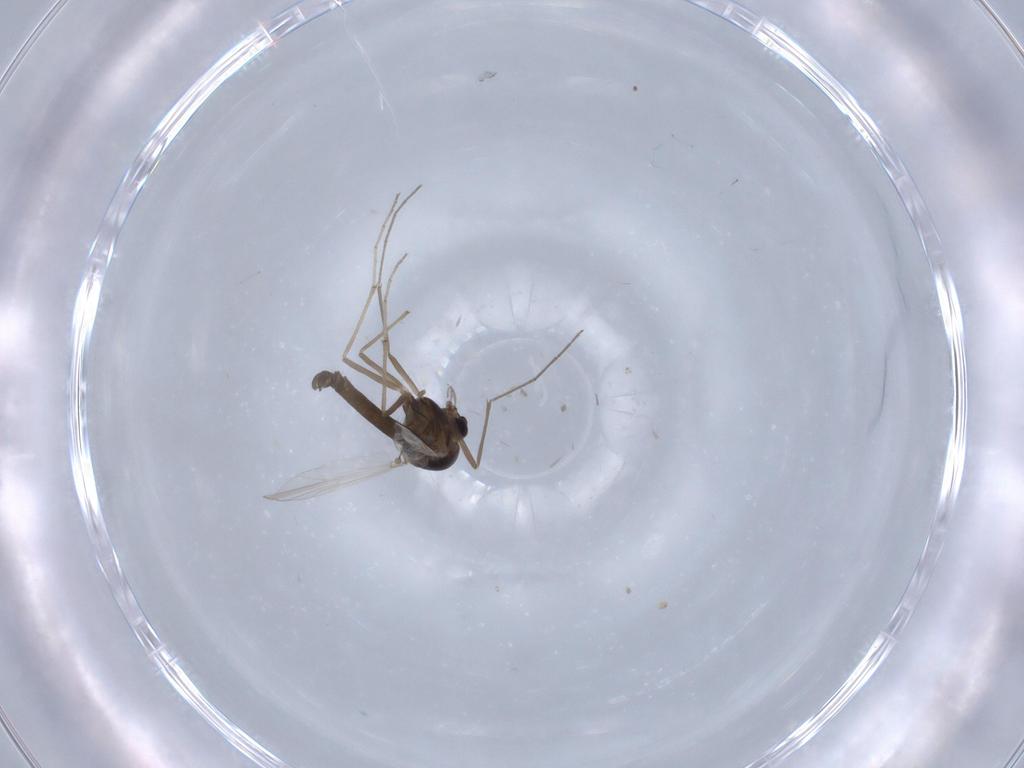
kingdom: Animalia
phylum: Arthropoda
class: Insecta
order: Diptera
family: Chironomidae
